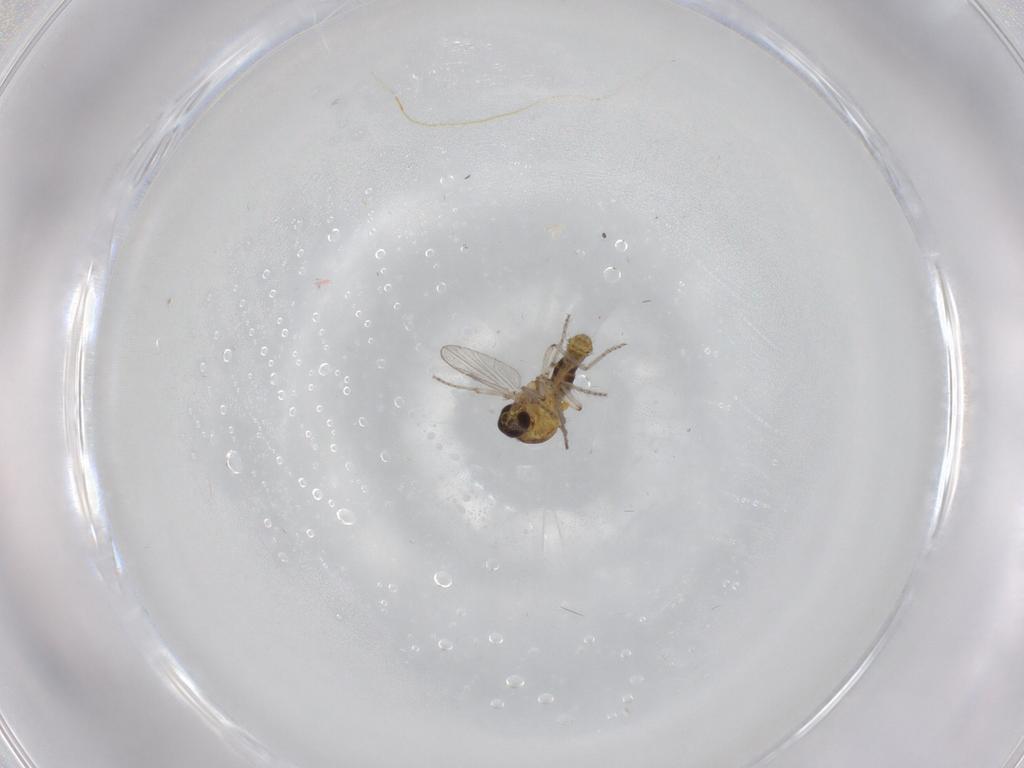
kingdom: Animalia
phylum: Arthropoda
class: Insecta
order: Diptera
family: Ceratopogonidae
